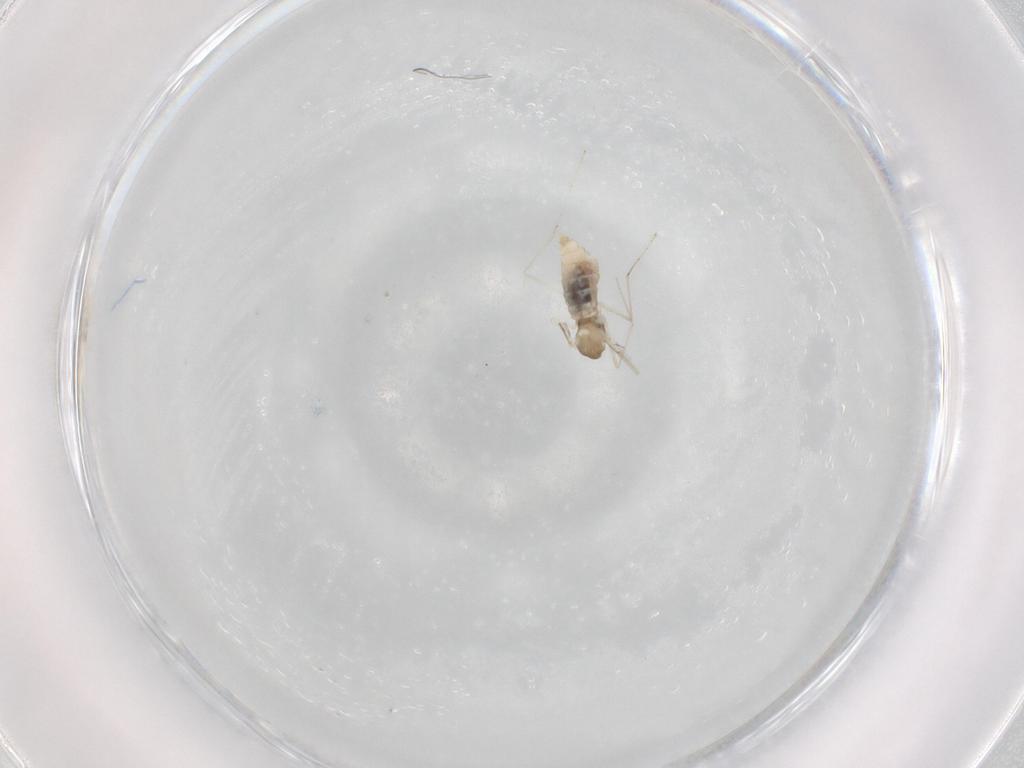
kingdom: Animalia
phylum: Arthropoda
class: Insecta
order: Diptera
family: Cecidomyiidae
